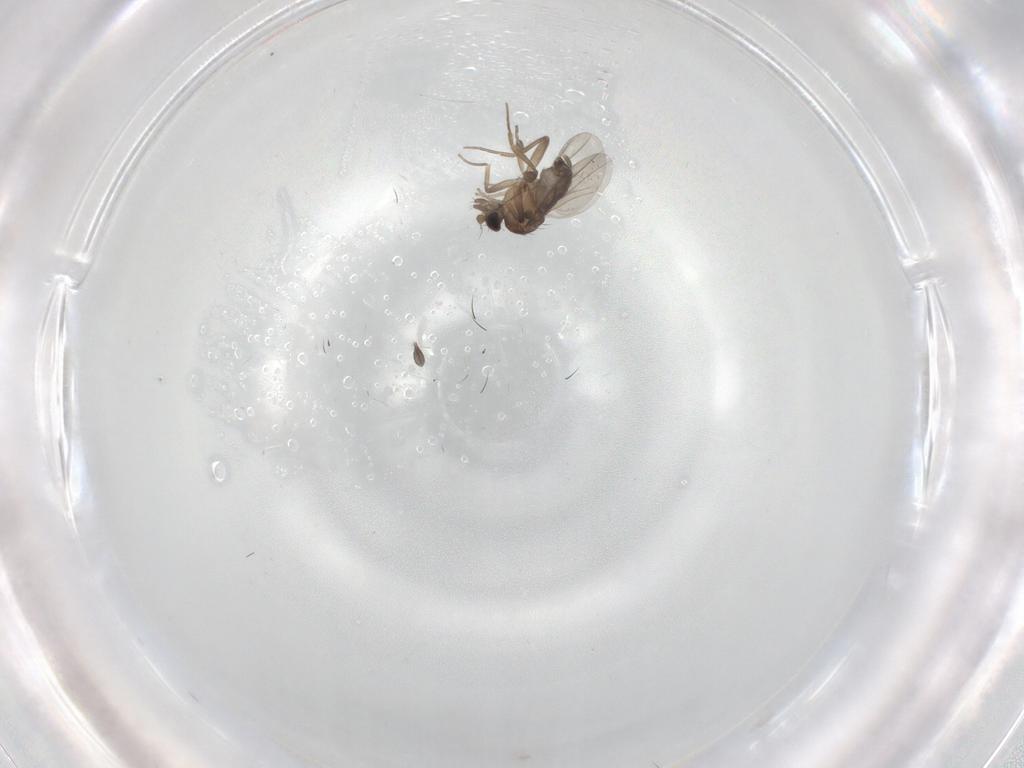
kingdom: Animalia
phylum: Arthropoda
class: Insecta
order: Diptera
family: Sciaridae
